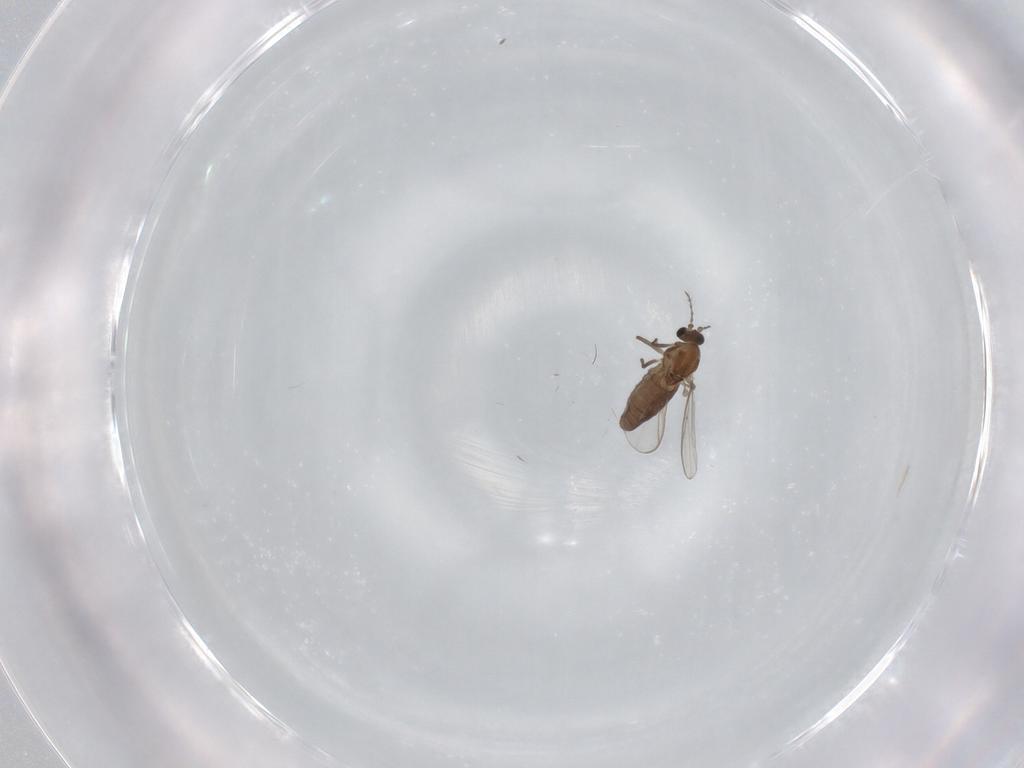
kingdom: Animalia
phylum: Arthropoda
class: Insecta
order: Diptera
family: Chironomidae
